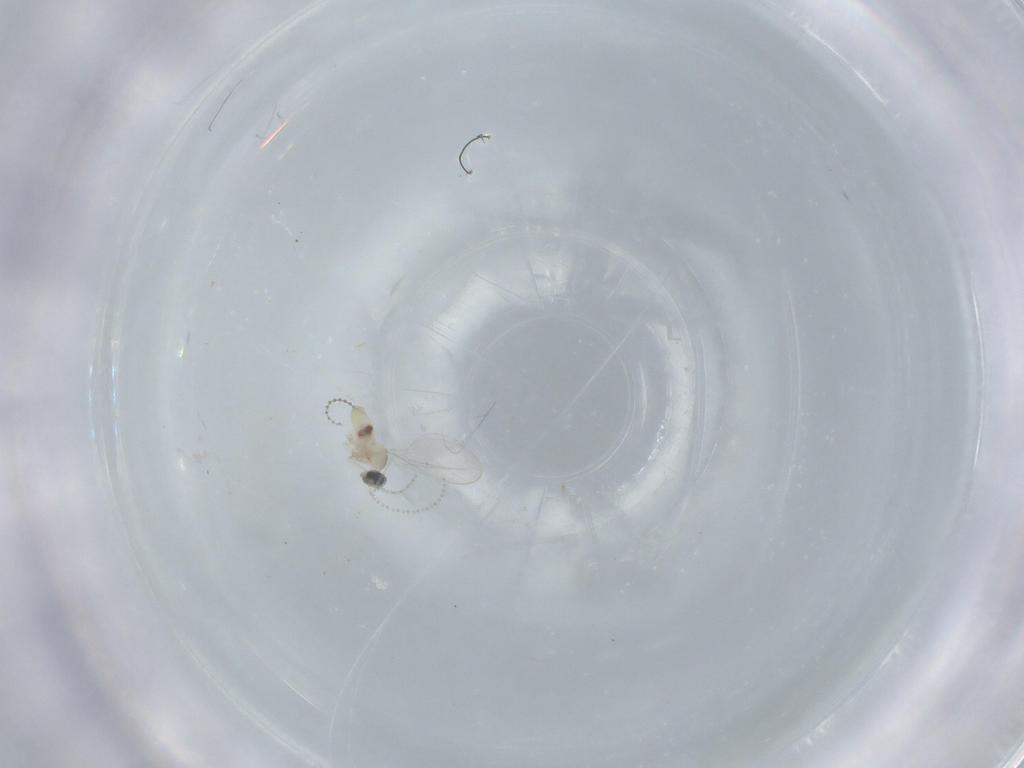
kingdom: Animalia
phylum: Arthropoda
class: Insecta
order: Diptera
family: Cecidomyiidae
